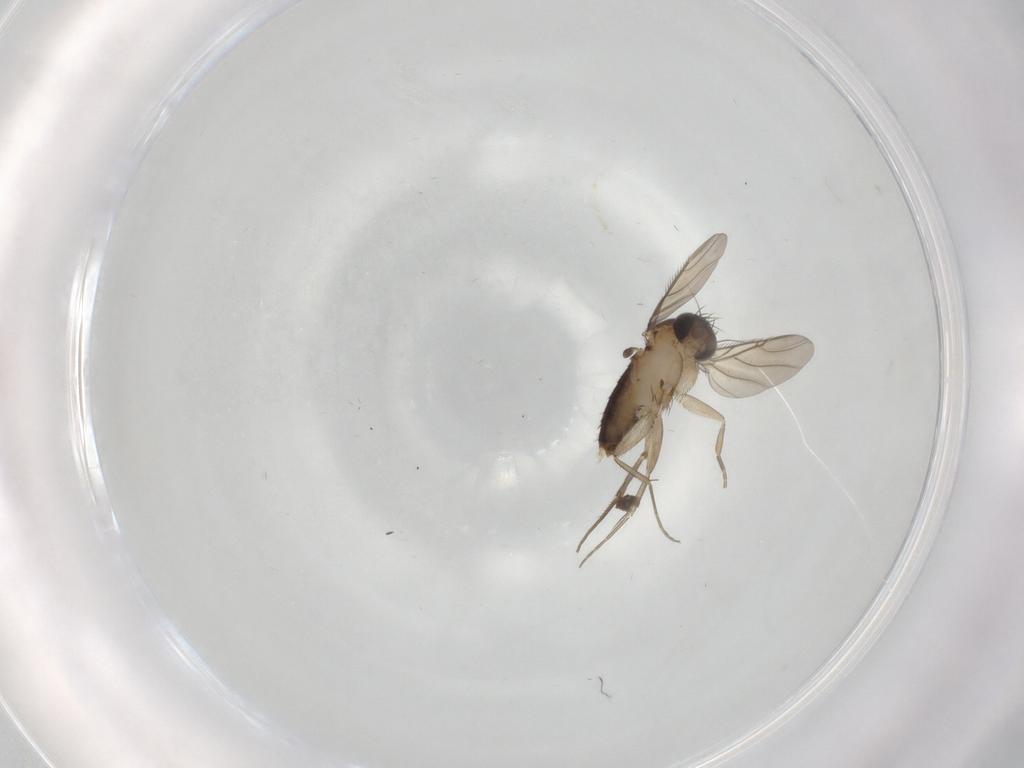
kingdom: Animalia
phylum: Arthropoda
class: Insecta
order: Diptera
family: Phoridae
